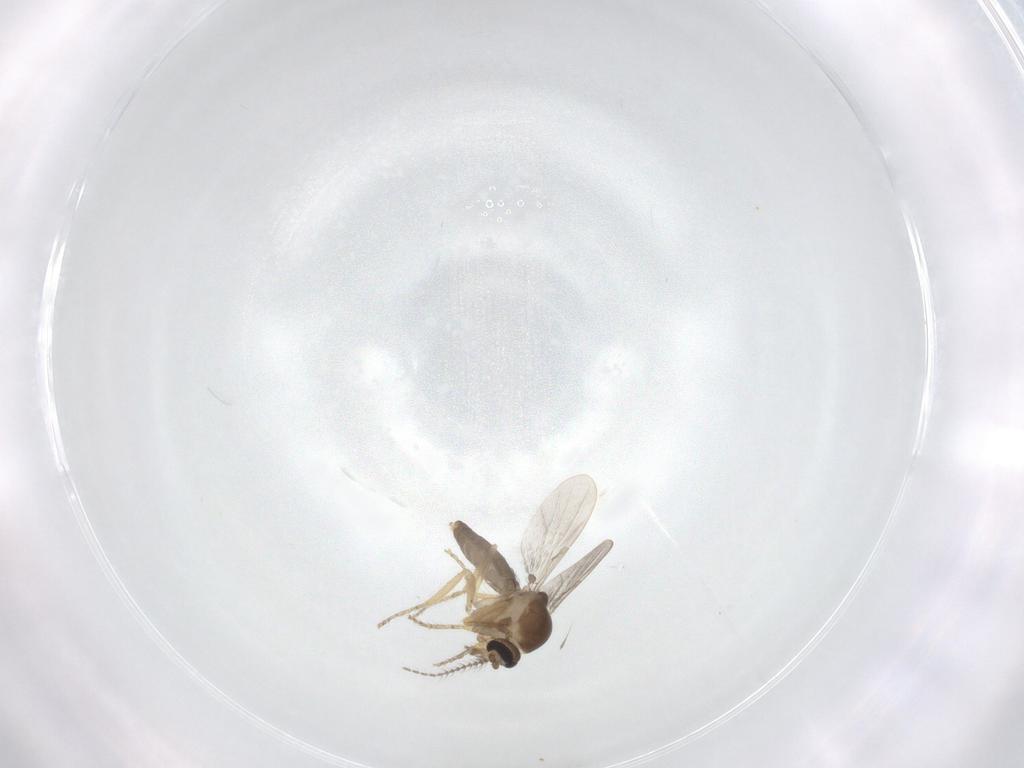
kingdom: Animalia
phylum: Arthropoda
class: Insecta
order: Diptera
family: Ceratopogonidae
